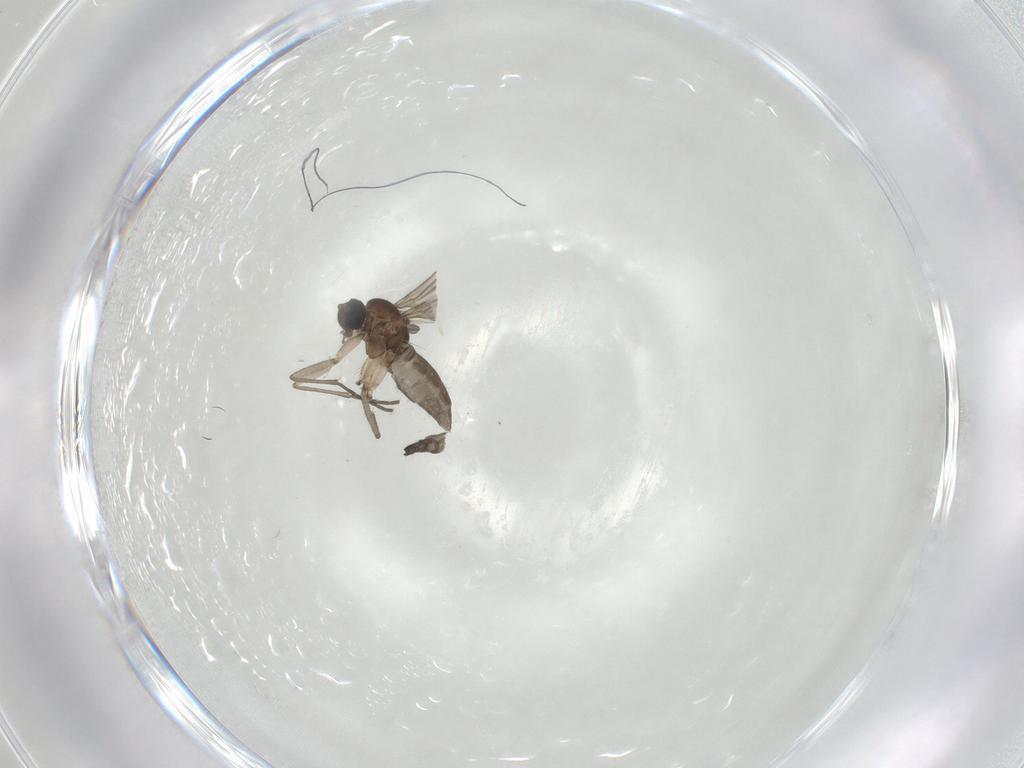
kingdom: Animalia
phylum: Arthropoda
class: Insecta
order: Diptera
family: Sciaridae
